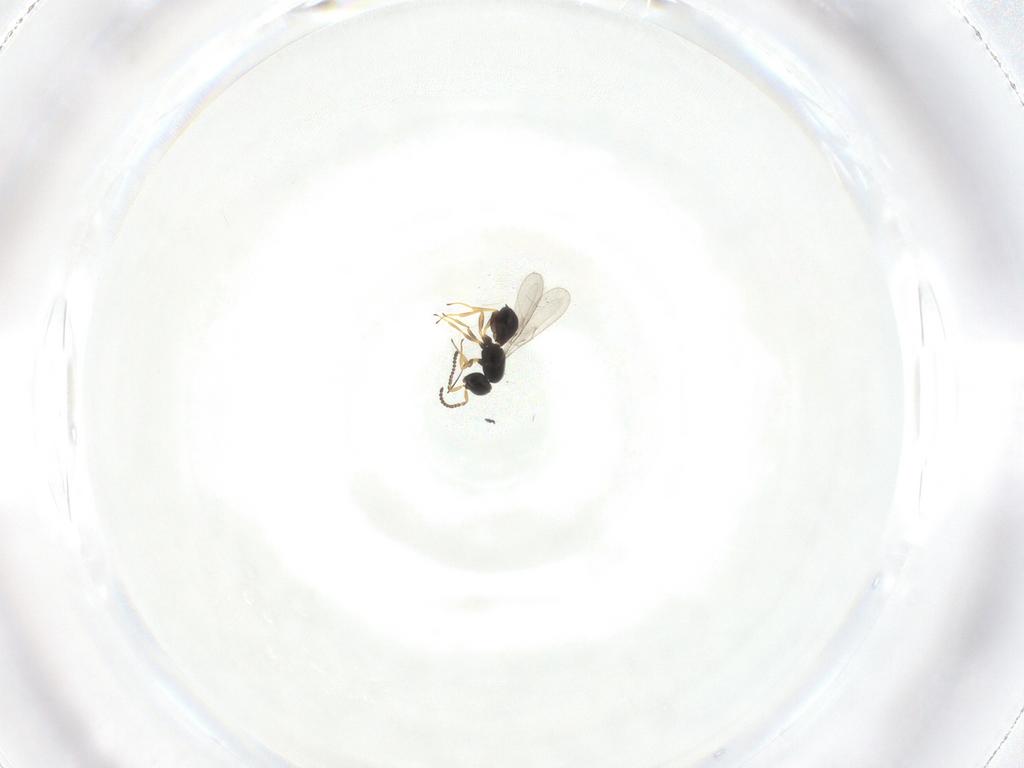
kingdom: Animalia
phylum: Arthropoda
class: Insecta
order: Hymenoptera
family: Scelionidae
